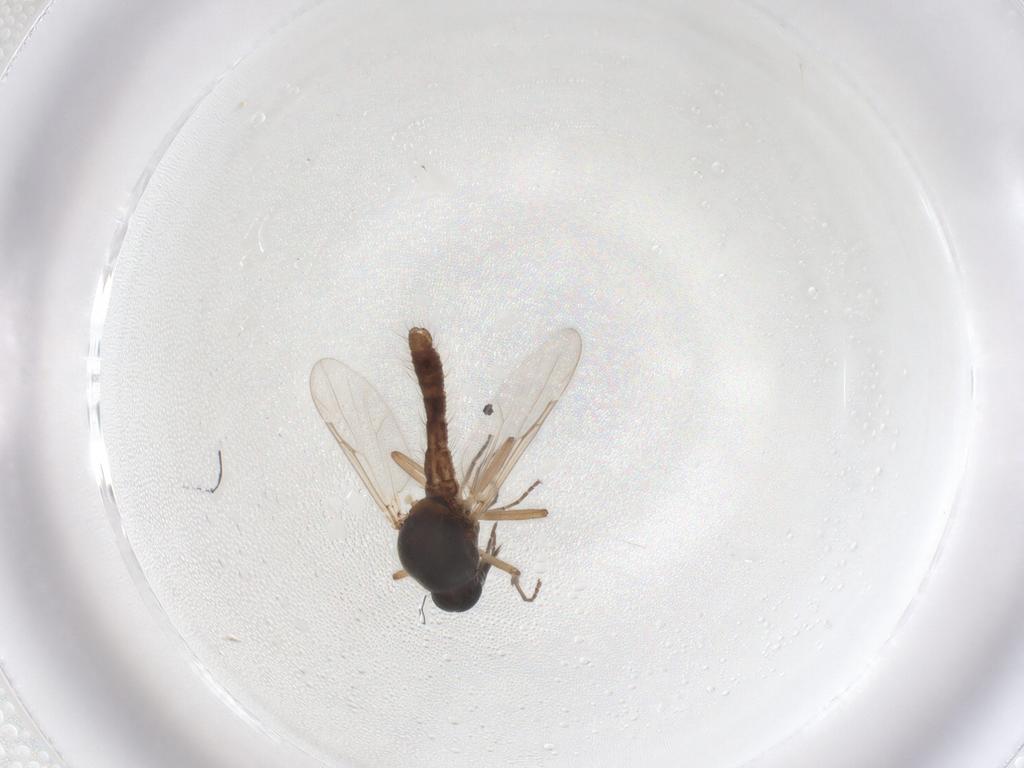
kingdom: Animalia
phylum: Arthropoda
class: Insecta
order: Diptera
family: Ceratopogonidae
